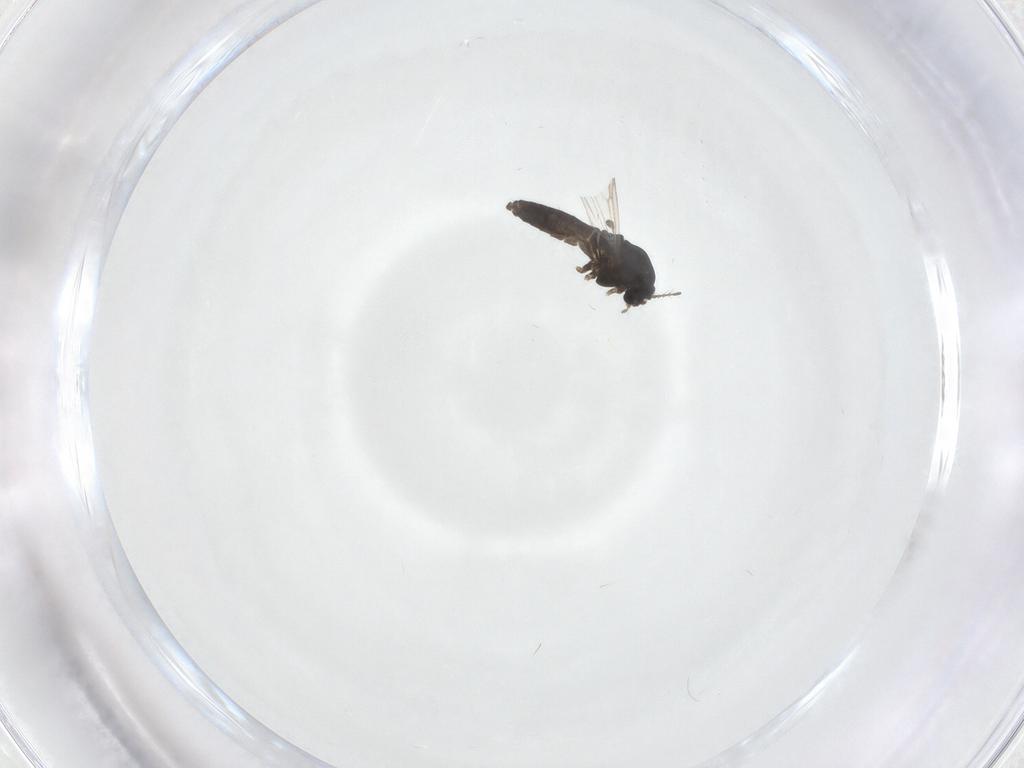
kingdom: Animalia
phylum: Arthropoda
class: Insecta
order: Diptera
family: Chironomidae
